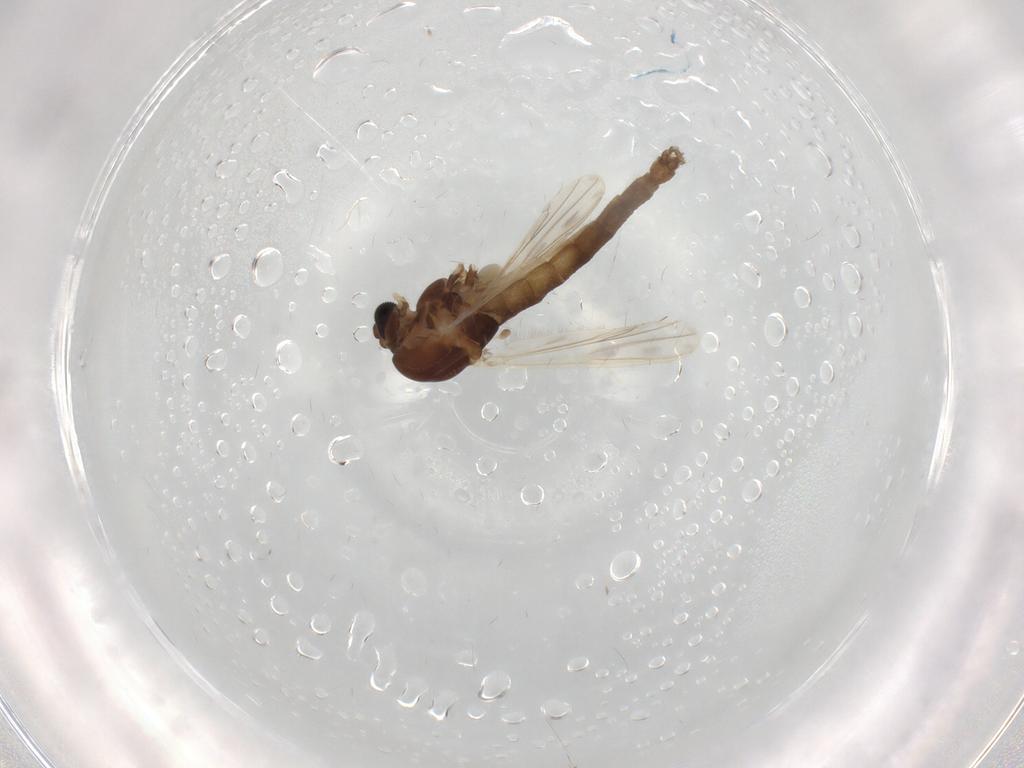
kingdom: Animalia
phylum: Arthropoda
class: Insecta
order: Diptera
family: Chironomidae
